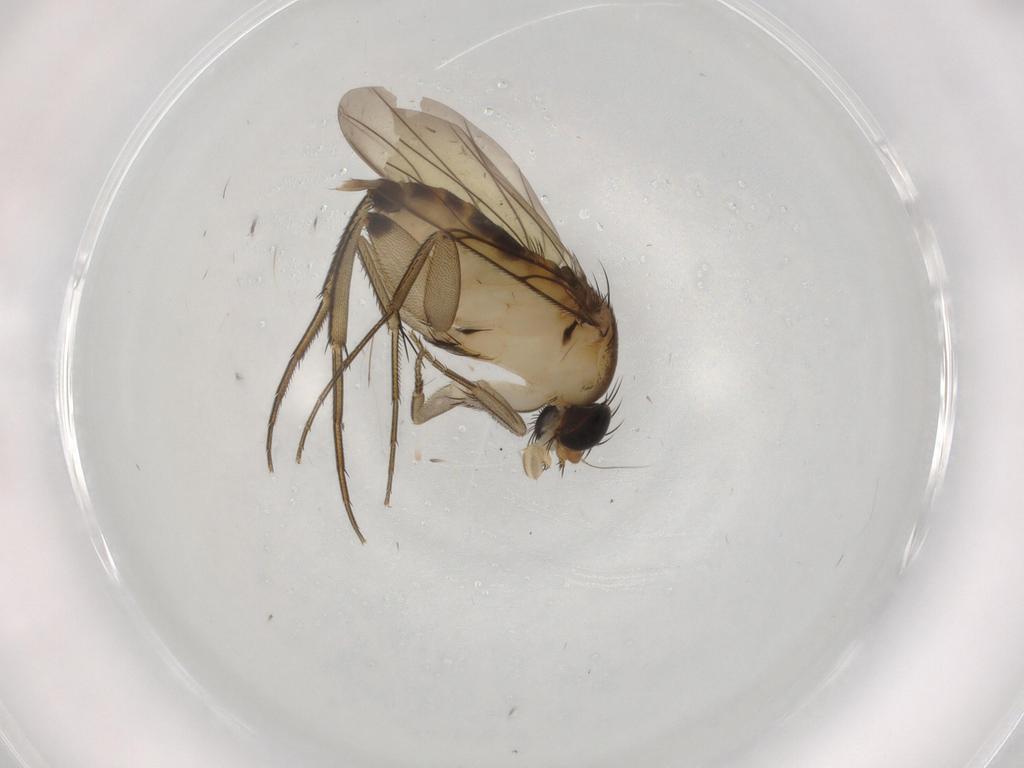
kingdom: Animalia
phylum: Arthropoda
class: Insecta
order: Diptera
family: Phoridae
